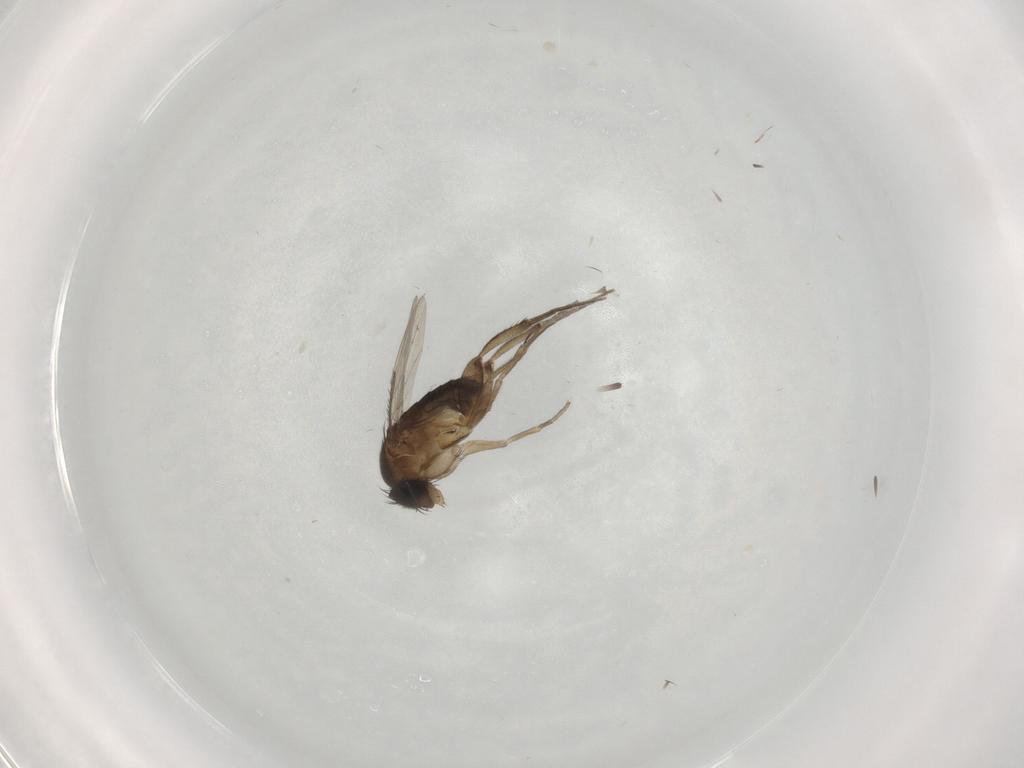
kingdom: Animalia
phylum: Arthropoda
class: Insecta
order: Diptera
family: Phoridae
